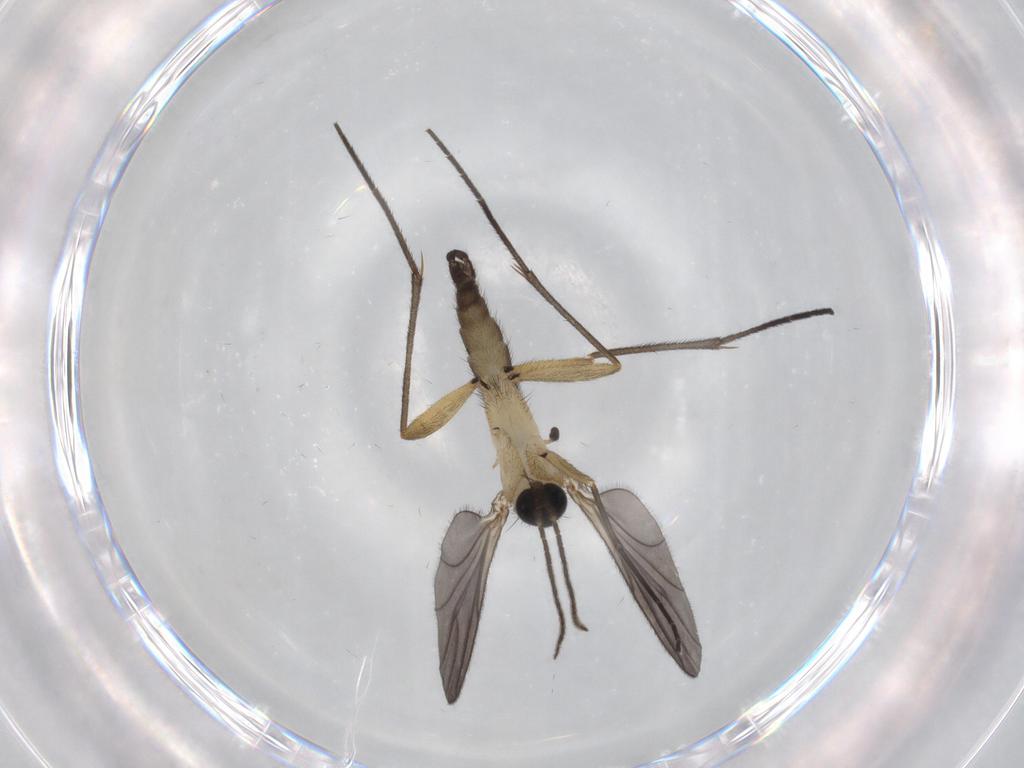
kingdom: Animalia
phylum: Arthropoda
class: Insecta
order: Diptera
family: Sciaridae
